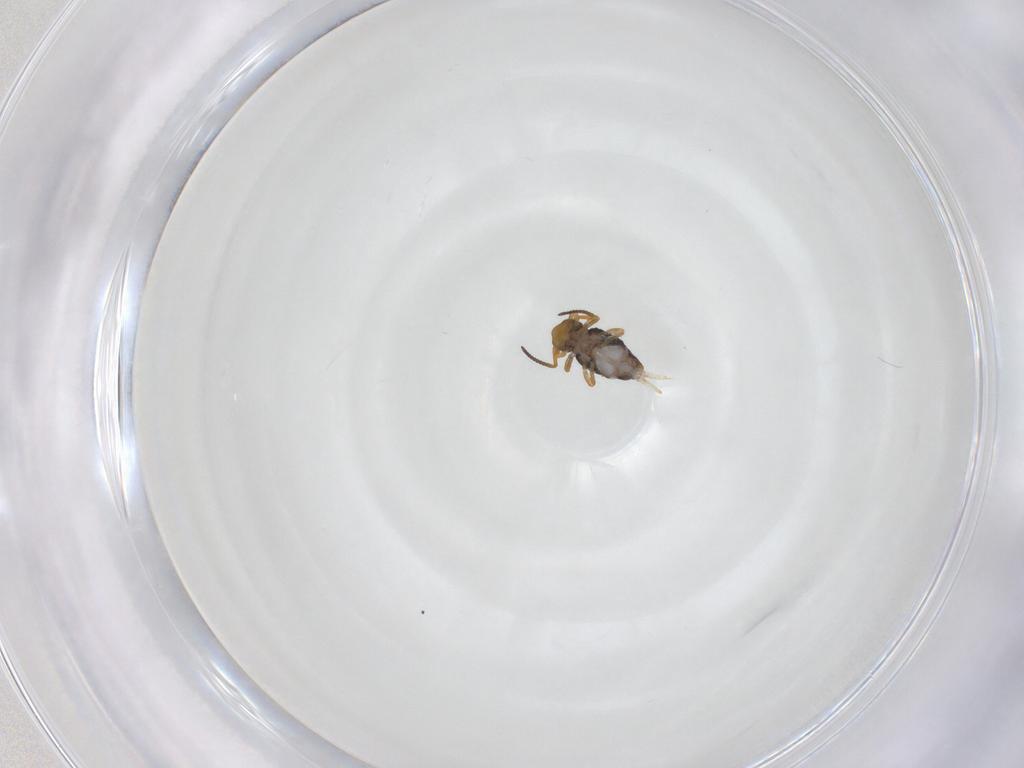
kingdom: Animalia
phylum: Arthropoda
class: Collembola
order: Symphypleona
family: Katiannidae
